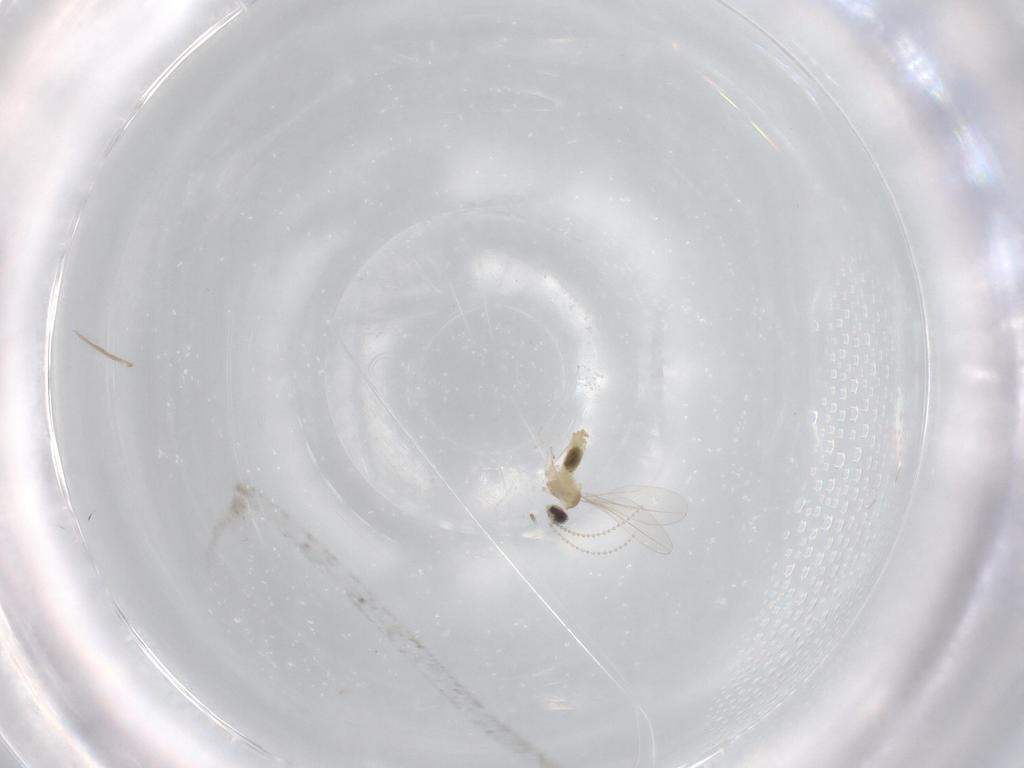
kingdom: Animalia
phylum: Arthropoda
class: Insecta
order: Diptera
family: Cecidomyiidae
